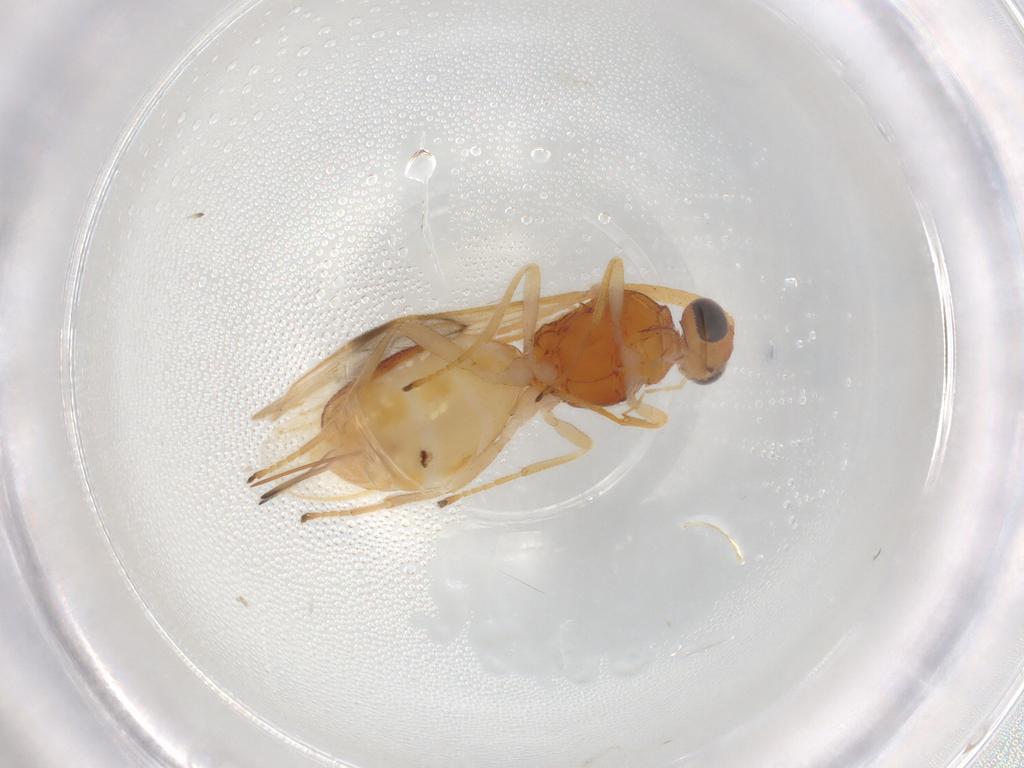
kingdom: Animalia
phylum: Arthropoda
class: Insecta
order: Hymenoptera
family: Braconidae
